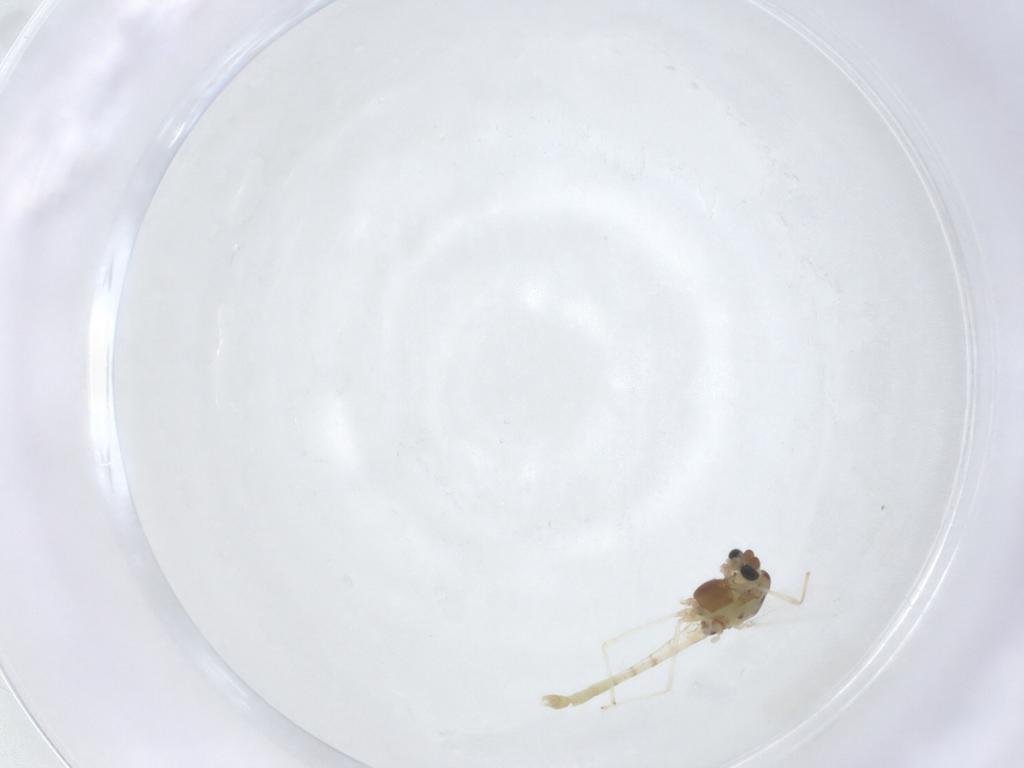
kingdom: Animalia
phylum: Arthropoda
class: Insecta
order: Diptera
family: Chironomidae
